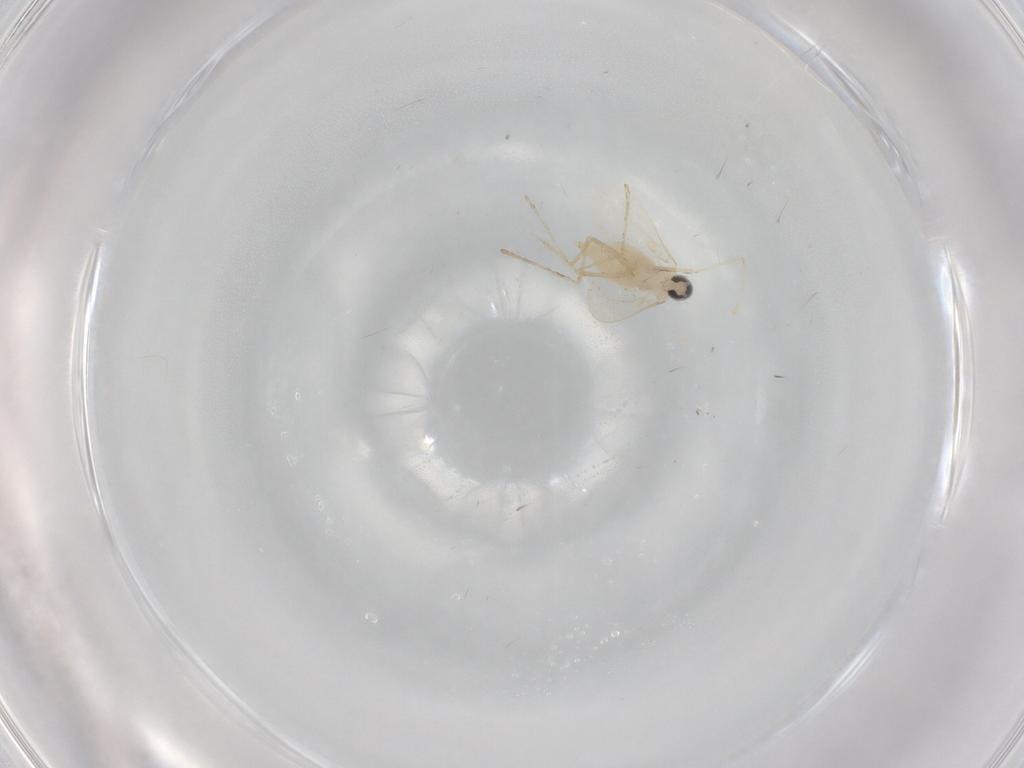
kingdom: Animalia
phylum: Arthropoda
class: Insecta
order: Diptera
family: Cecidomyiidae
